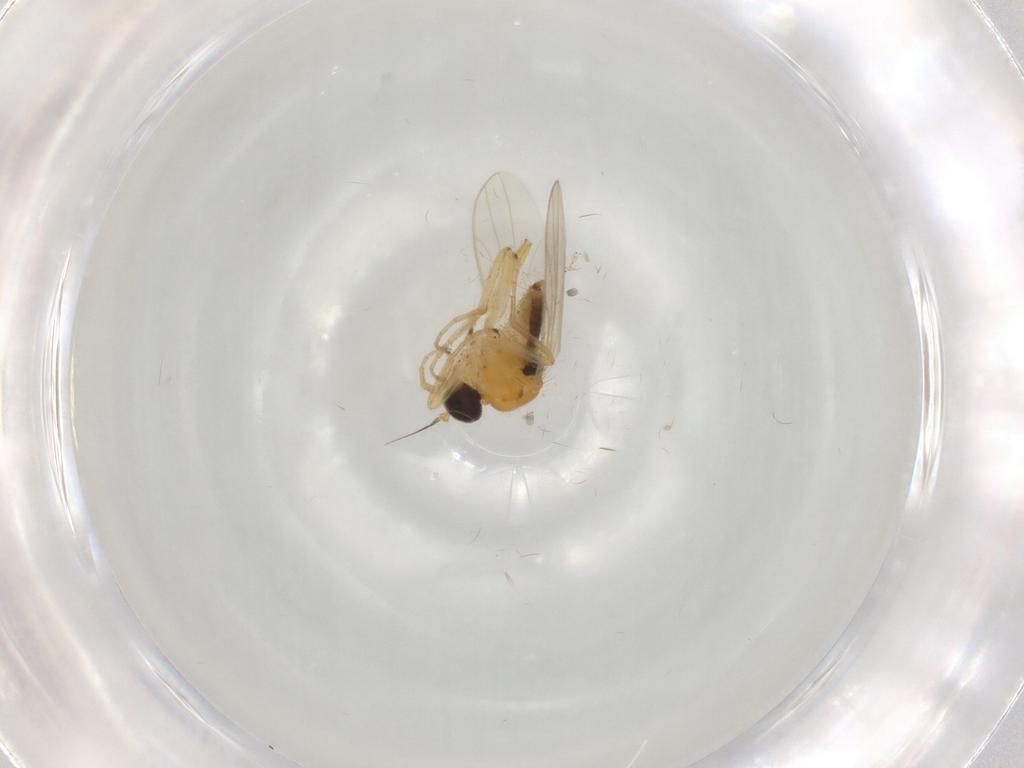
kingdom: Animalia
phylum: Arthropoda
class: Insecta
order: Diptera
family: Hybotidae
